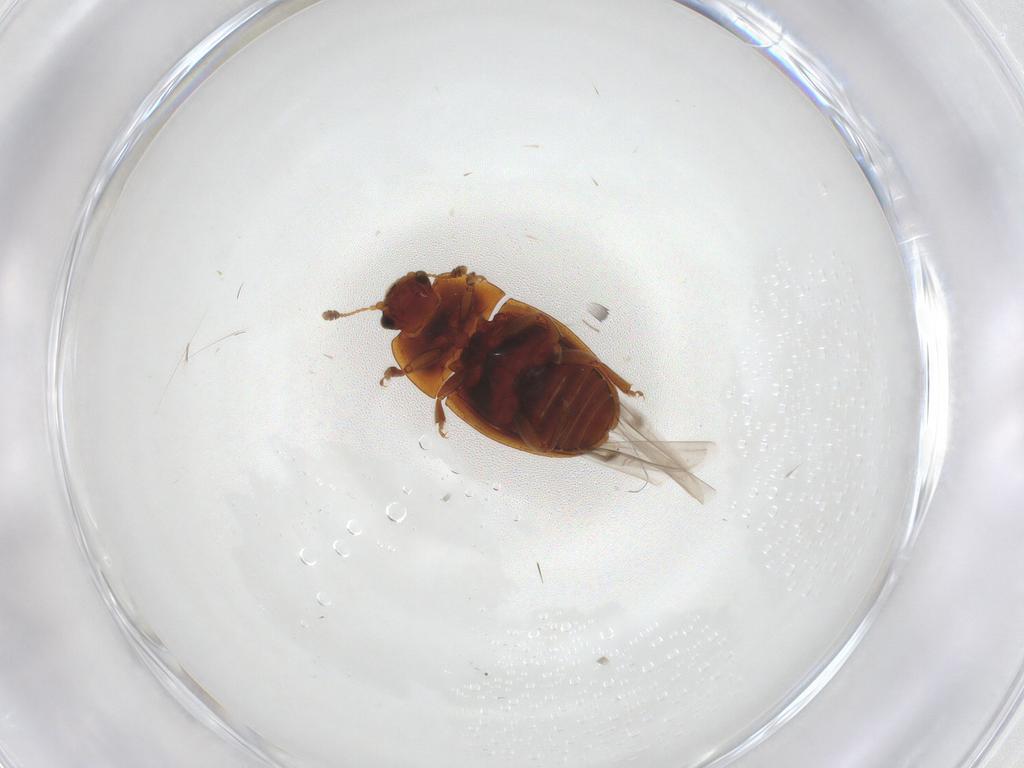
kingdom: Animalia
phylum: Arthropoda
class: Insecta
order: Coleoptera
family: Nitidulidae
